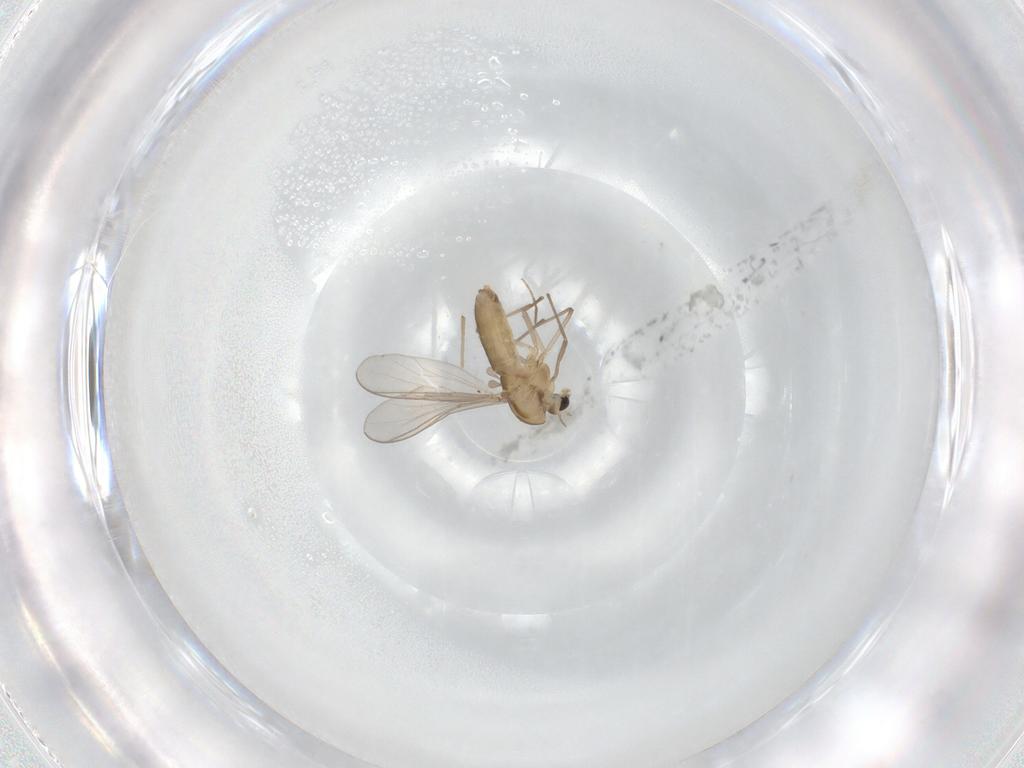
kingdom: Animalia
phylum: Arthropoda
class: Insecta
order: Diptera
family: Chironomidae
